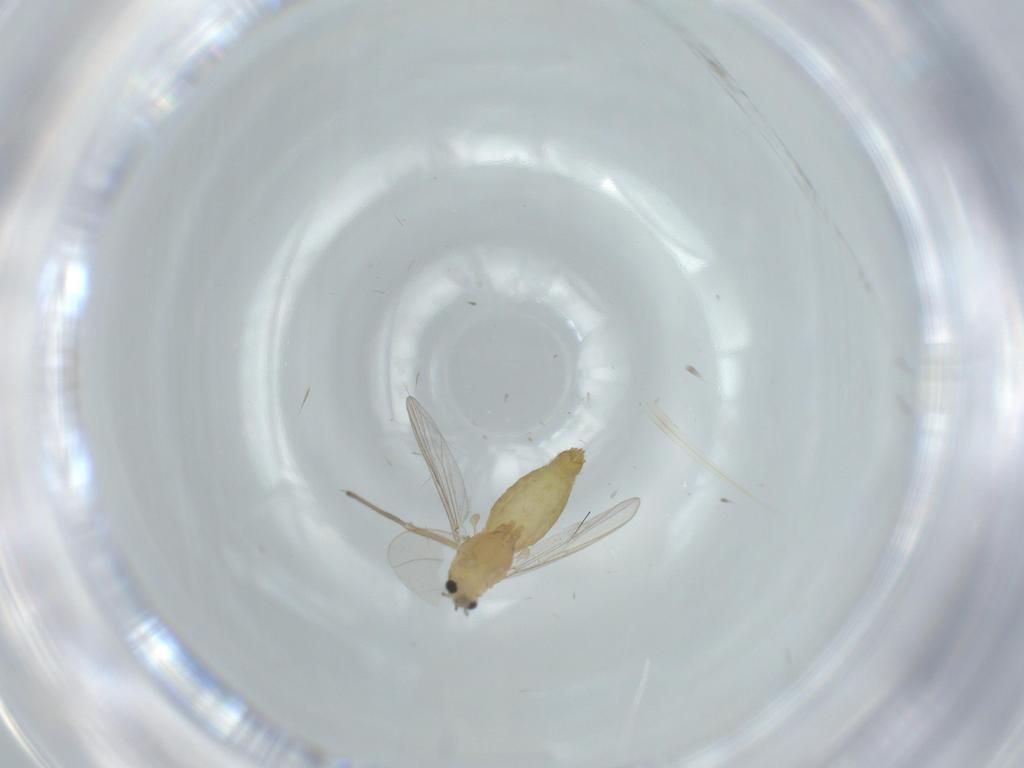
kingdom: Animalia
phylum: Arthropoda
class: Insecta
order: Diptera
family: Chironomidae
